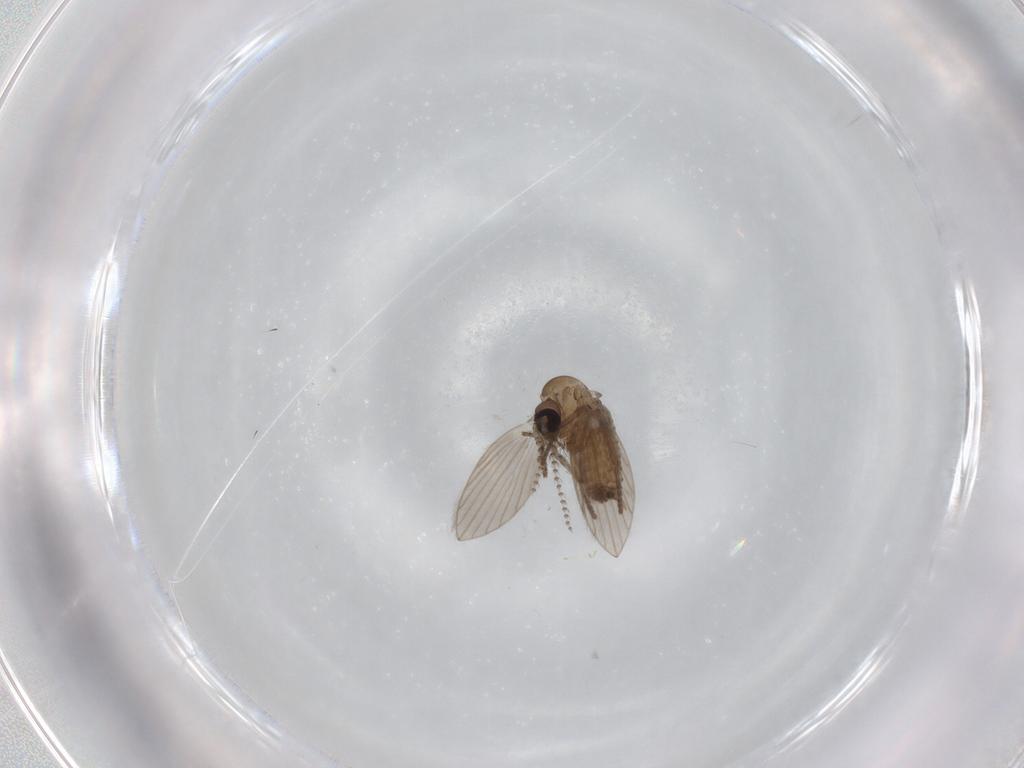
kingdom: Animalia
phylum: Arthropoda
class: Insecta
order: Diptera
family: Psychodidae
